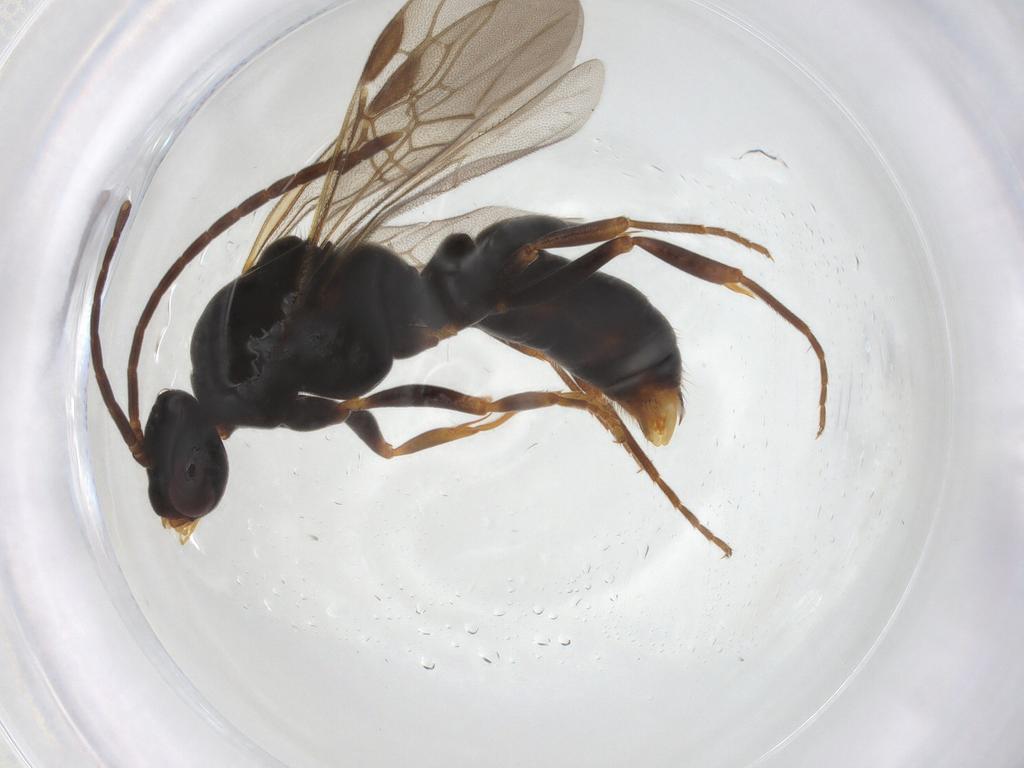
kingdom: Animalia
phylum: Arthropoda
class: Insecta
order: Hymenoptera
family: Formicidae
